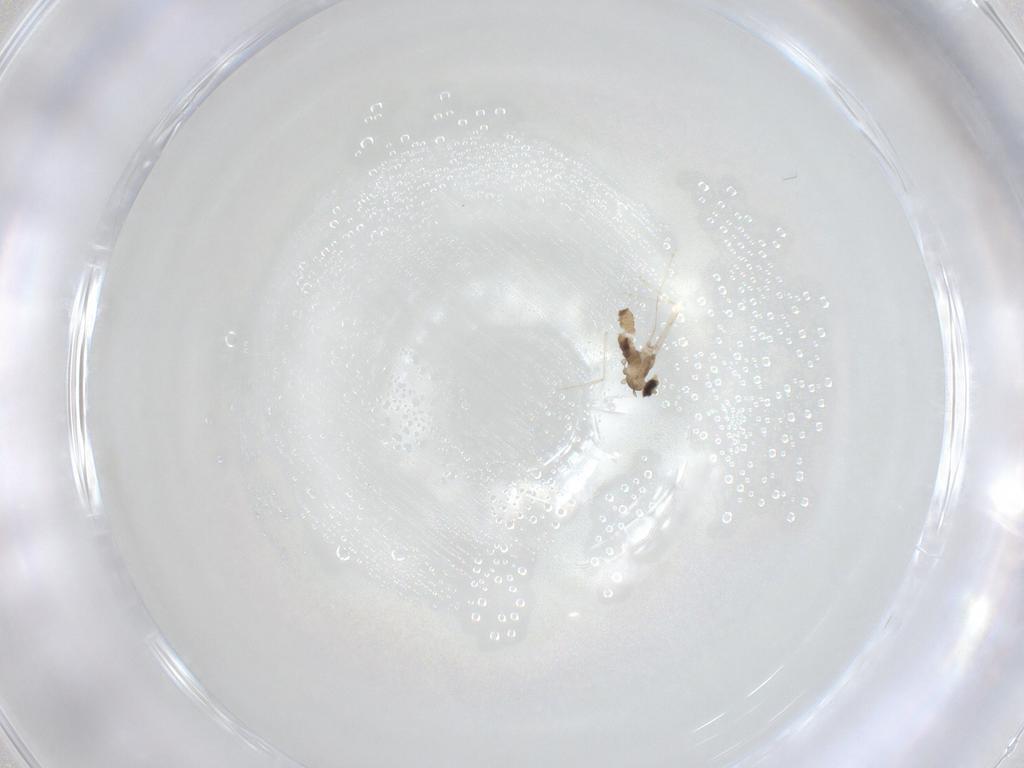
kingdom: Animalia
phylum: Arthropoda
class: Insecta
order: Diptera
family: Cecidomyiidae
